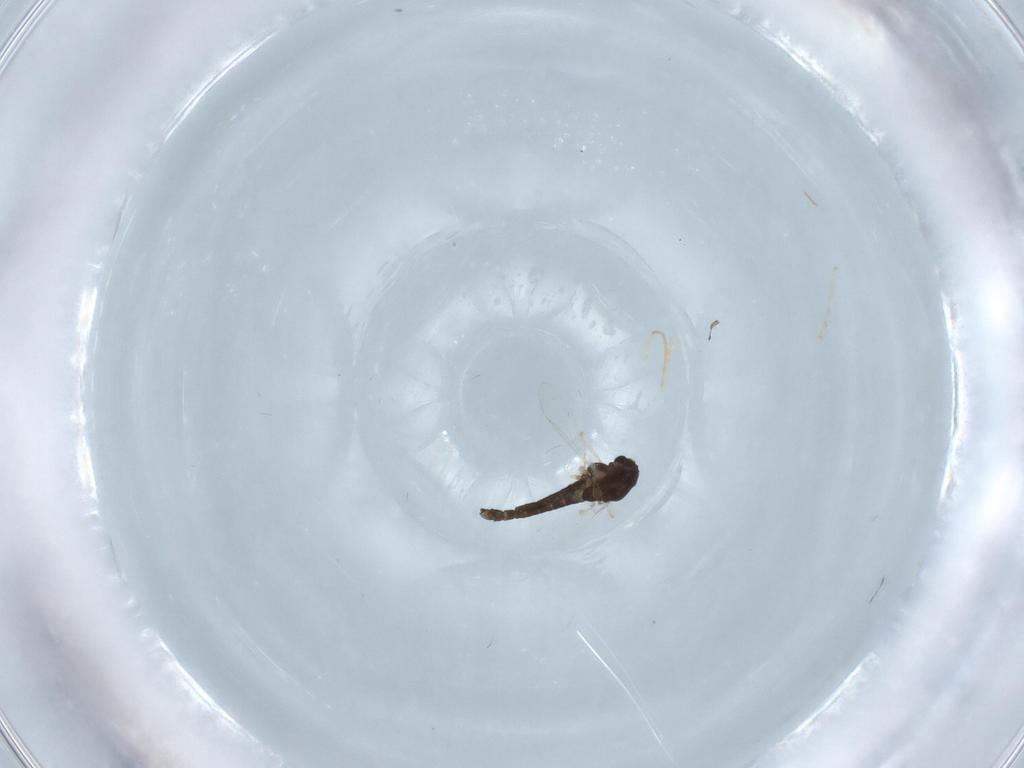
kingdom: Animalia
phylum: Arthropoda
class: Insecta
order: Diptera
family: Chironomidae
